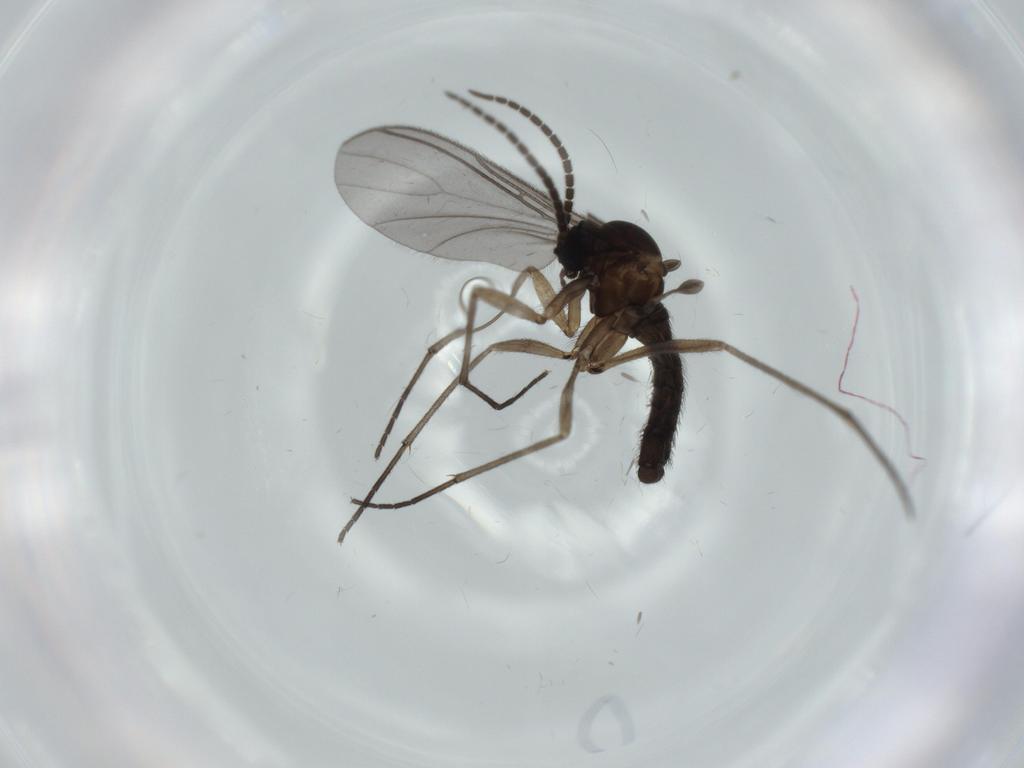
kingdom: Animalia
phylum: Arthropoda
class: Insecta
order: Diptera
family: Sciaridae
